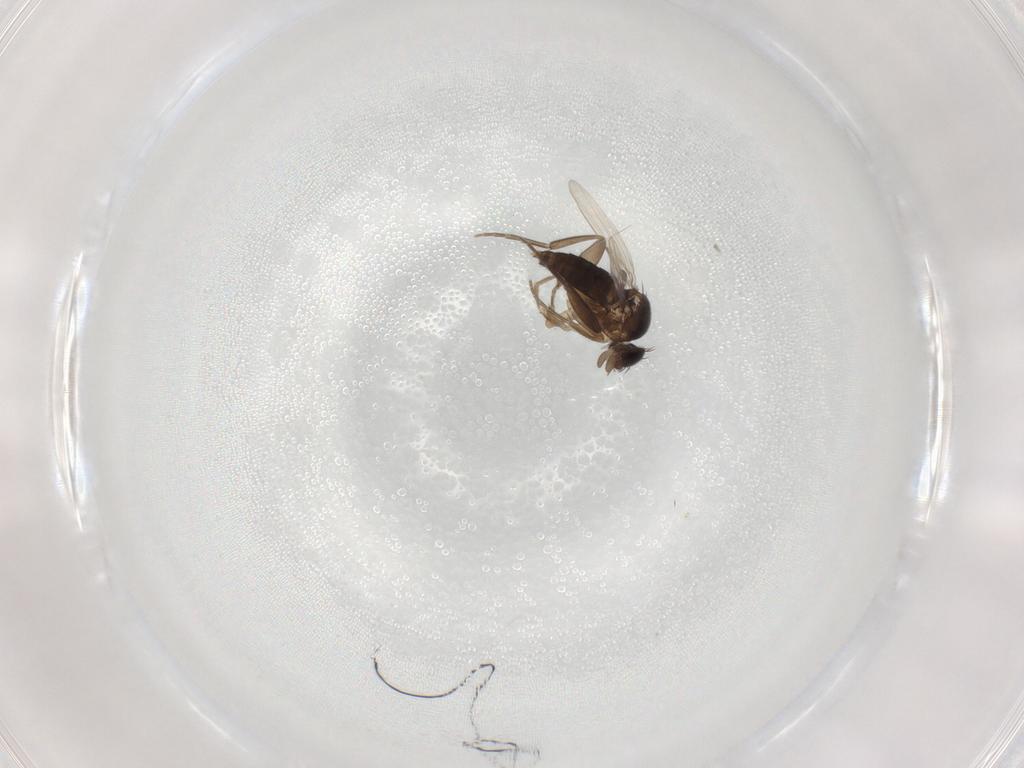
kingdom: Animalia
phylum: Arthropoda
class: Insecta
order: Diptera
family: Phoridae
